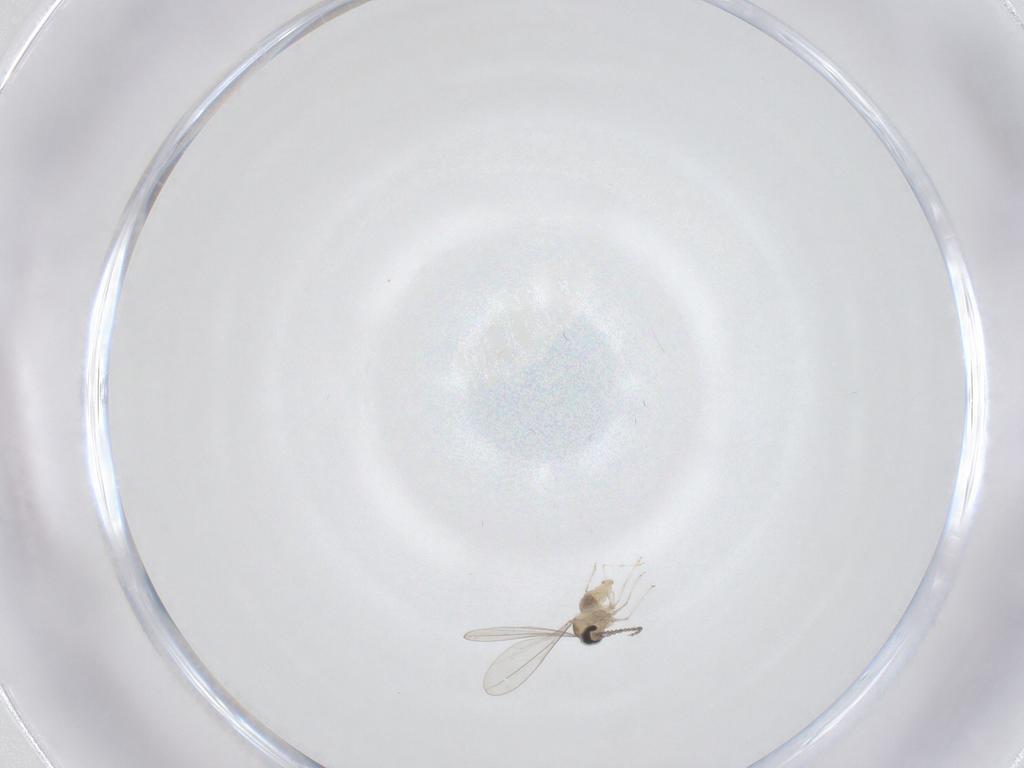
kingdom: Animalia
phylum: Arthropoda
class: Insecta
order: Diptera
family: Cecidomyiidae
